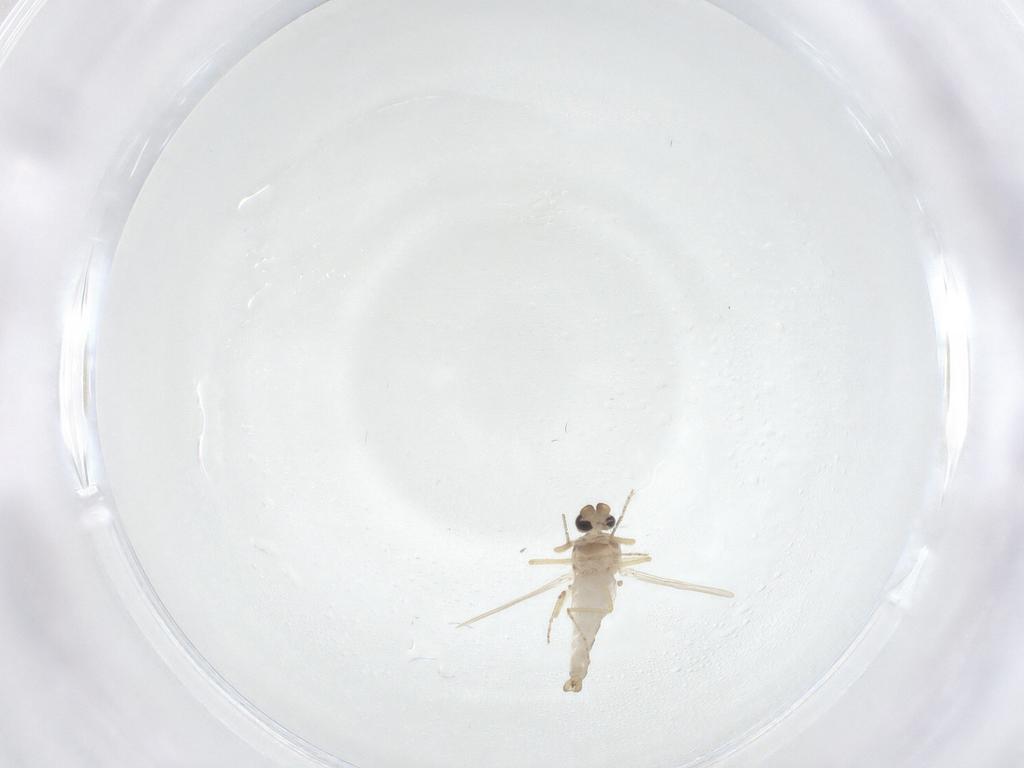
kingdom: Animalia
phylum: Arthropoda
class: Insecta
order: Diptera
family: Ceratopogonidae
